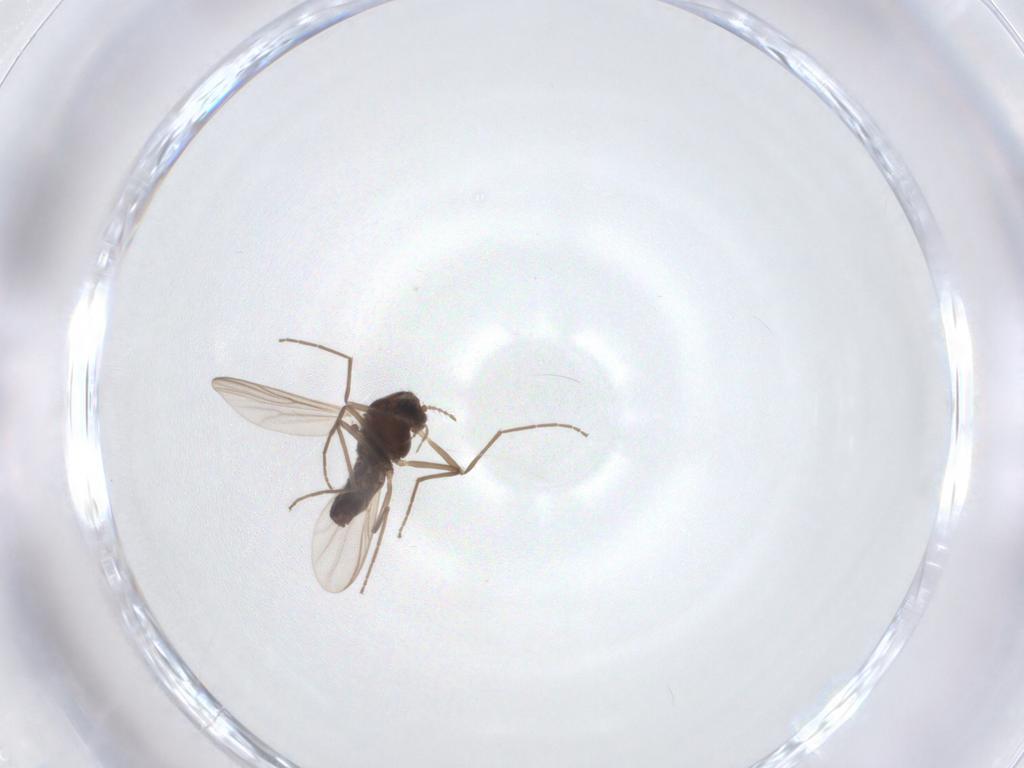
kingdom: Animalia
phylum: Arthropoda
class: Insecta
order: Diptera
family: Chironomidae
